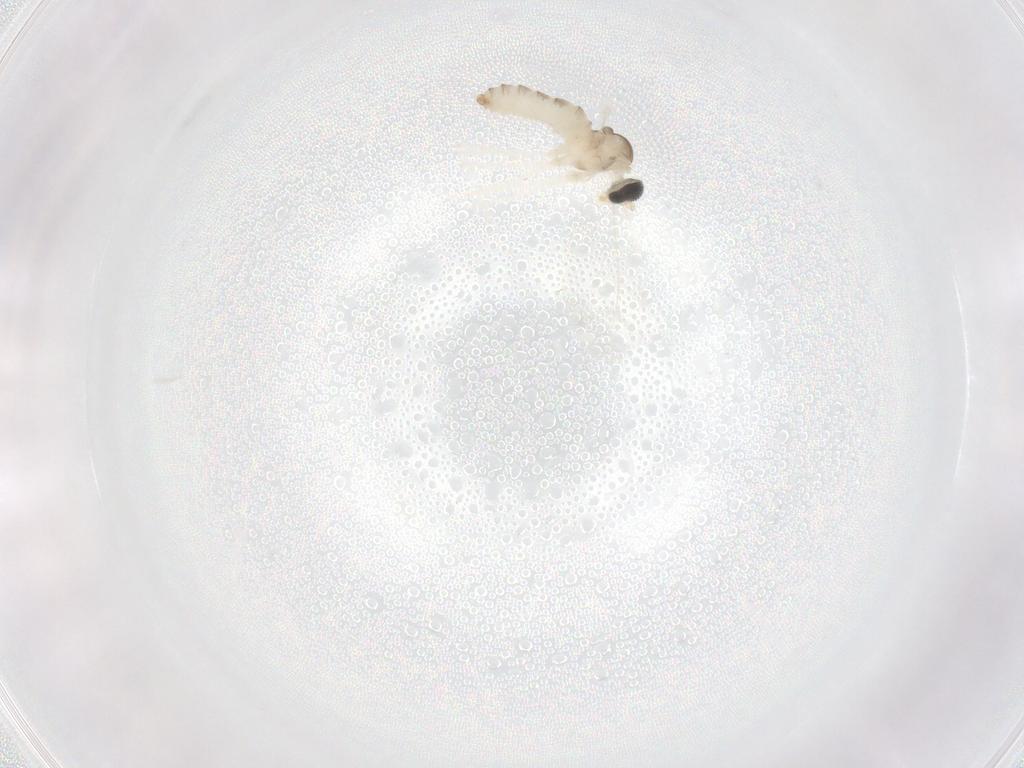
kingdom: Animalia
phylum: Arthropoda
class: Insecta
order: Diptera
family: Cecidomyiidae
